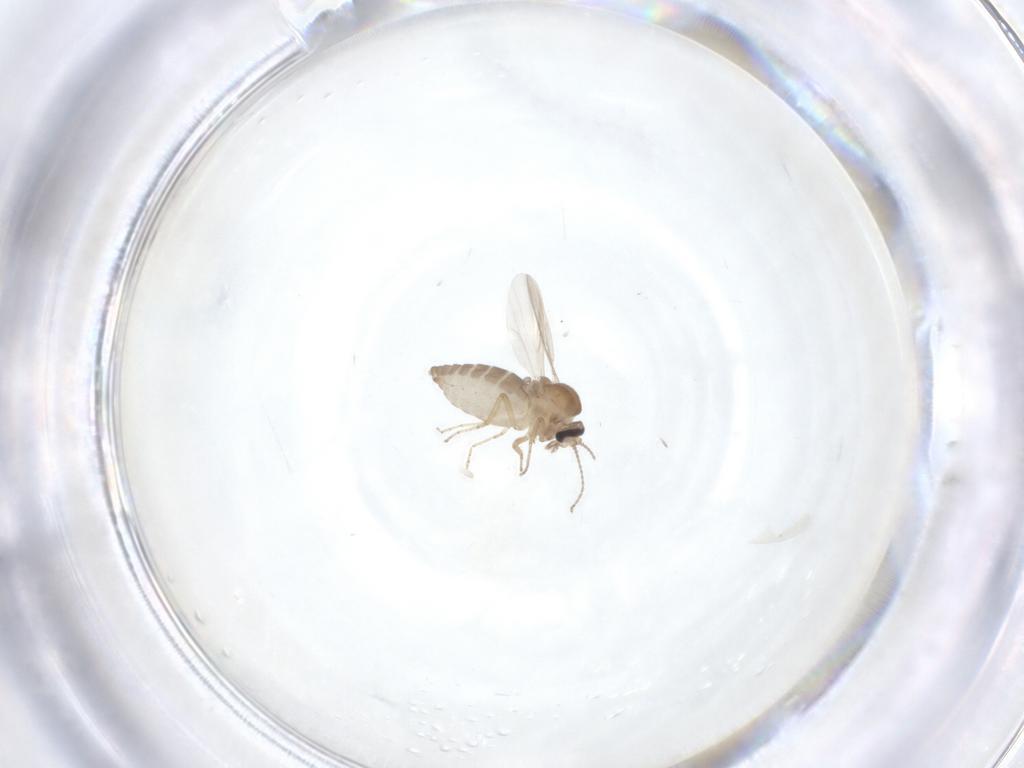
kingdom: Animalia
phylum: Arthropoda
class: Insecta
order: Diptera
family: Ceratopogonidae
